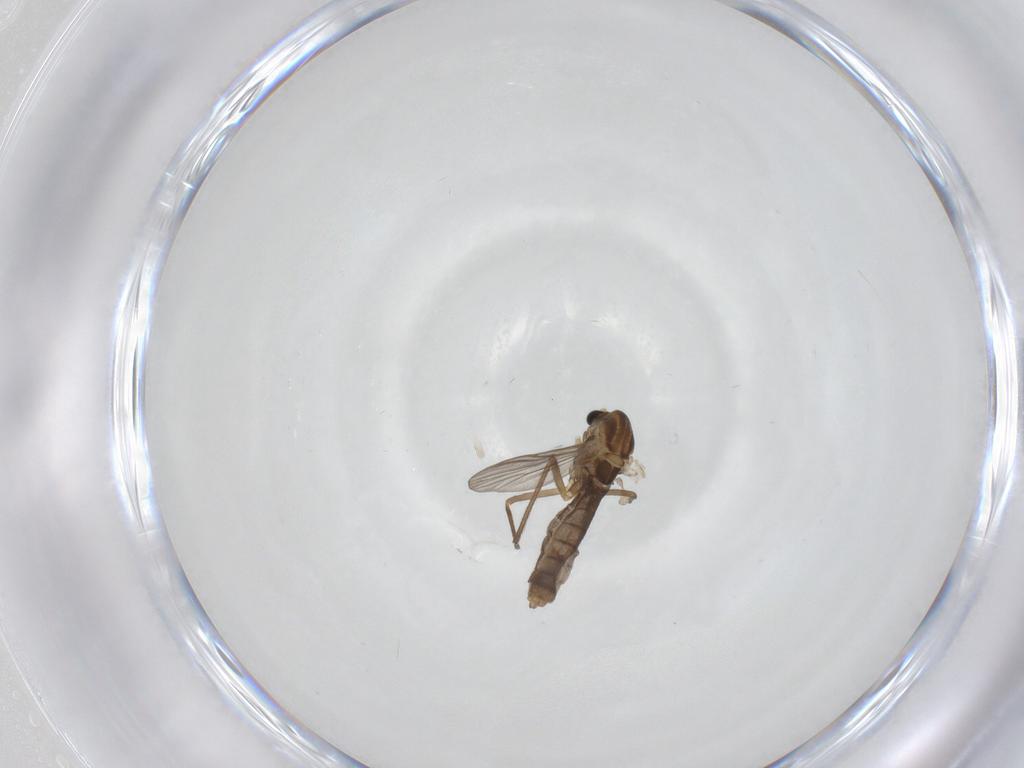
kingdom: Animalia
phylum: Arthropoda
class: Insecta
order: Diptera
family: Chironomidae
